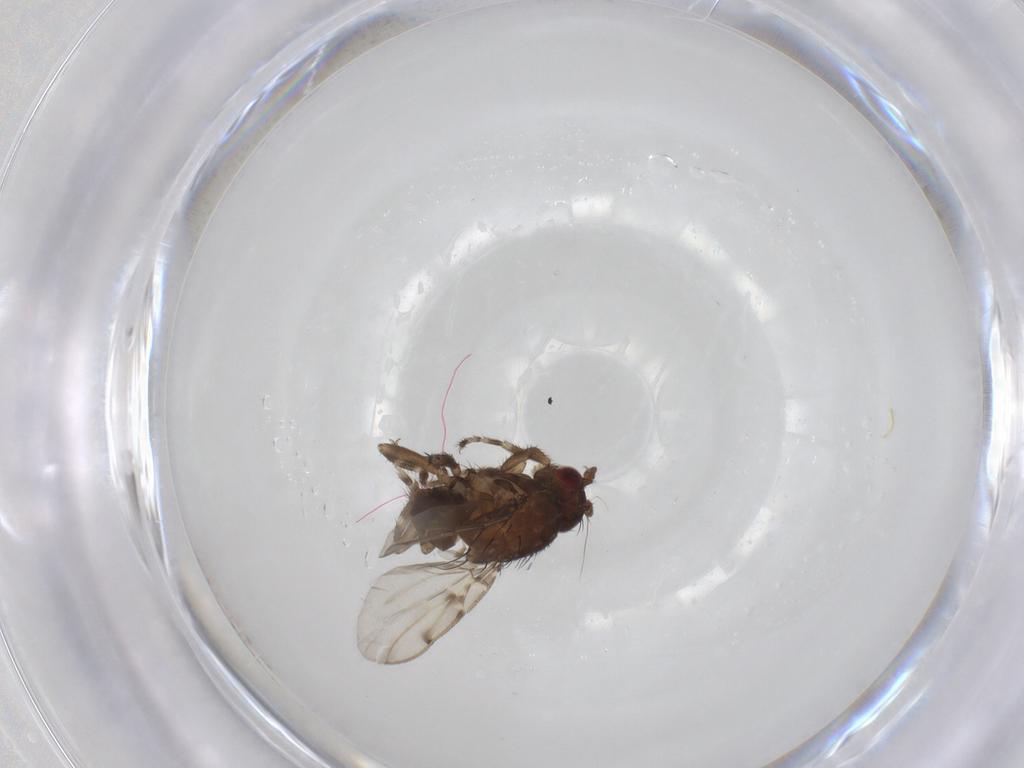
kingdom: Animalia
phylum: Arthropoda
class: Insecta
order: Diptera
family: Sphaeroceridae
